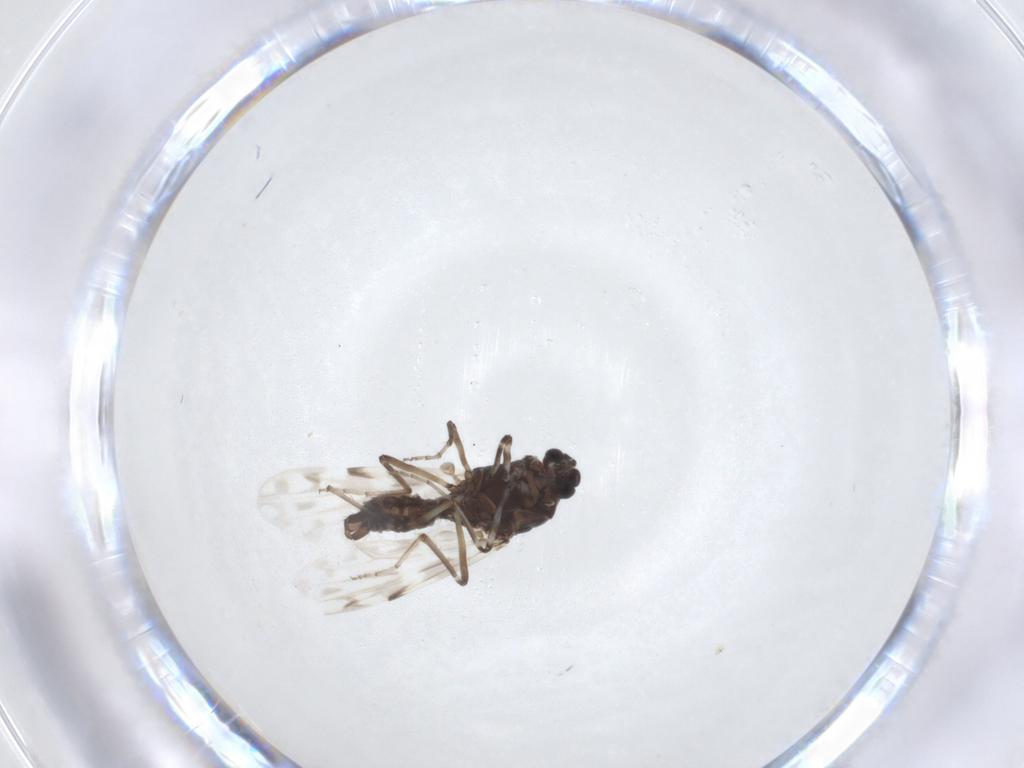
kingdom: Animalia
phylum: Arthropoda
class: Insecta
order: Diptera
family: Ceratopogonidae
